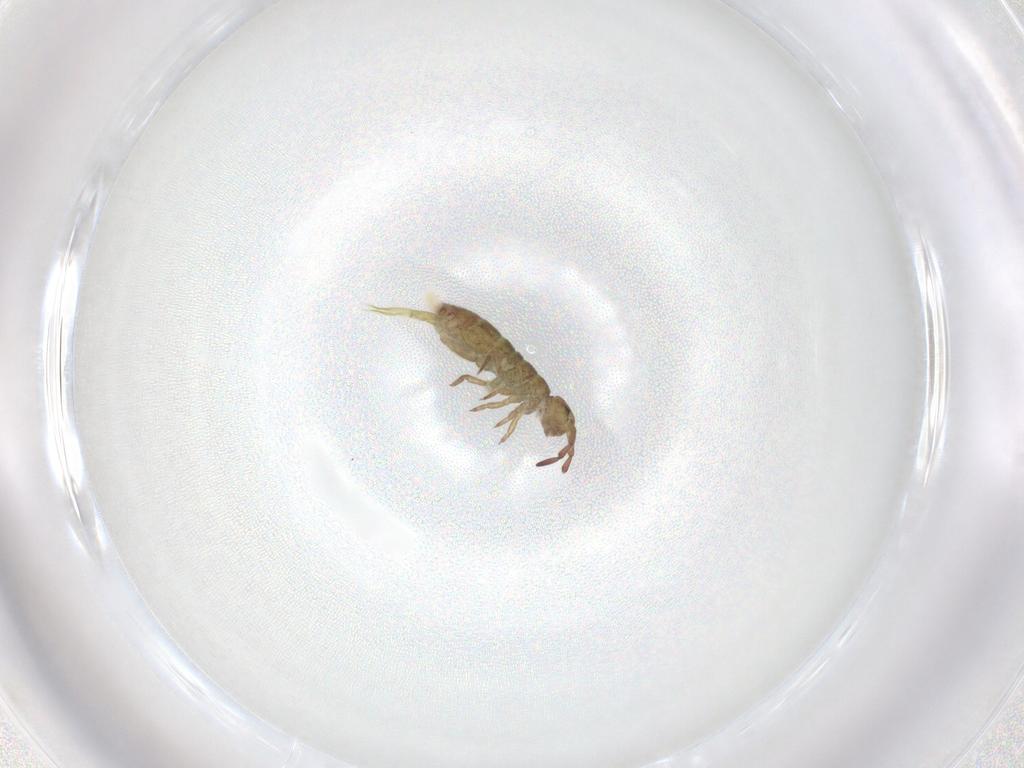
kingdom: Animalia
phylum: Arthropoda
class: Collembola
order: Entomobryomorpha
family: Isotomidae
